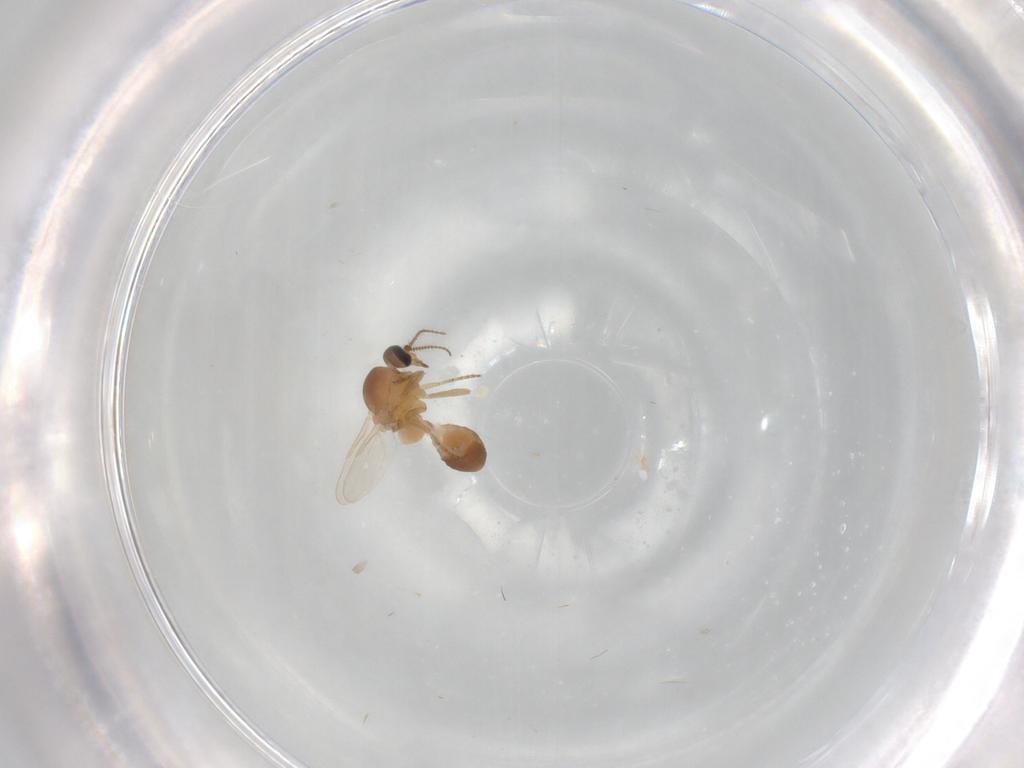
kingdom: Animalia
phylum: Arthropoda
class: Insecta
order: Diptera
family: Ceratopogonidae
